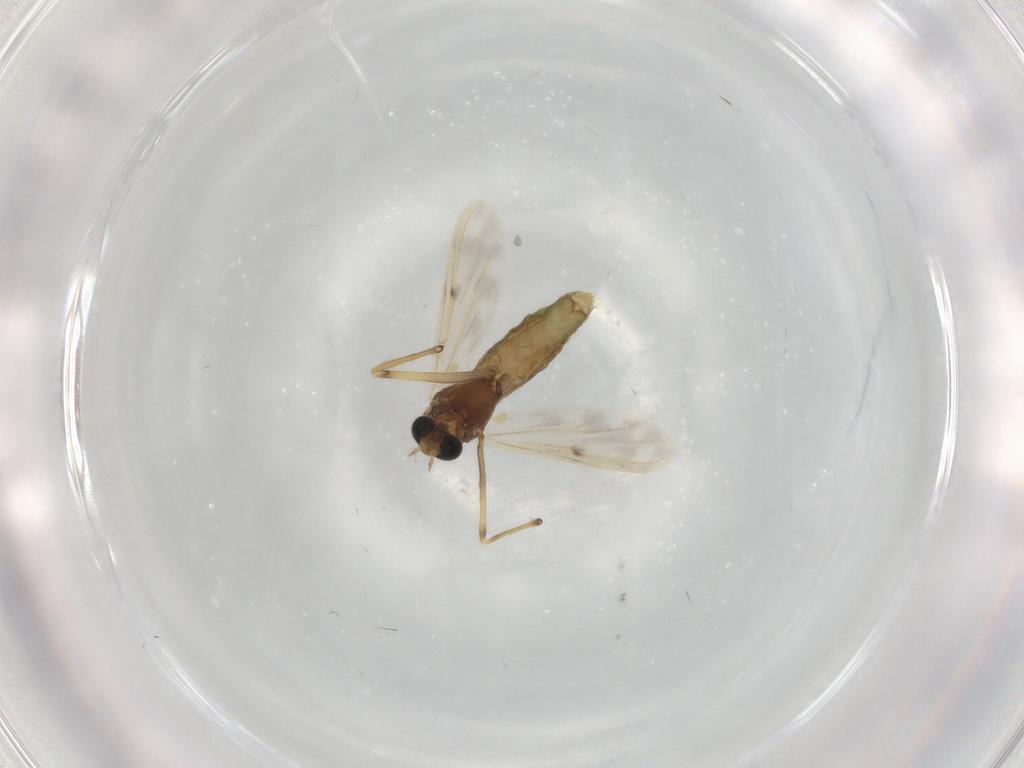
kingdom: Animalia
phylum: Arthropoda
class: Insecta
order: Diptera
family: Chironomidae
